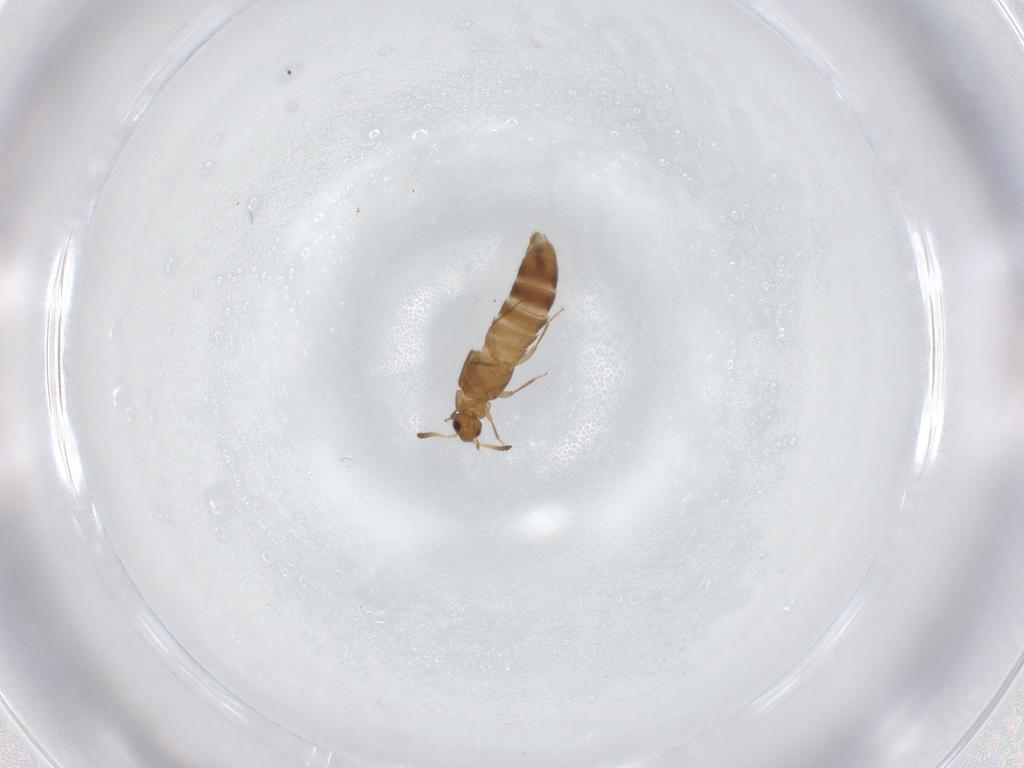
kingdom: Animalia
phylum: Arthropoda
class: Insecta
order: Coleoptera
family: Staphylinidae
